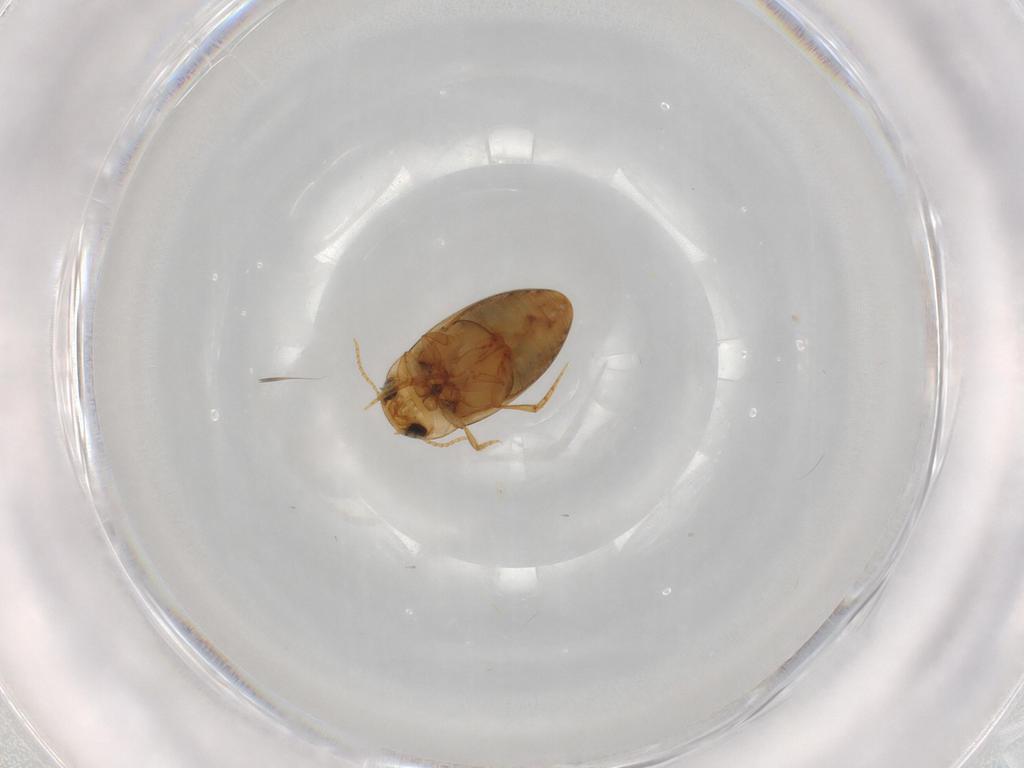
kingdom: Animalia
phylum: Arthropoda
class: Insecta
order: Coleoptera
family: Dytiscidae
